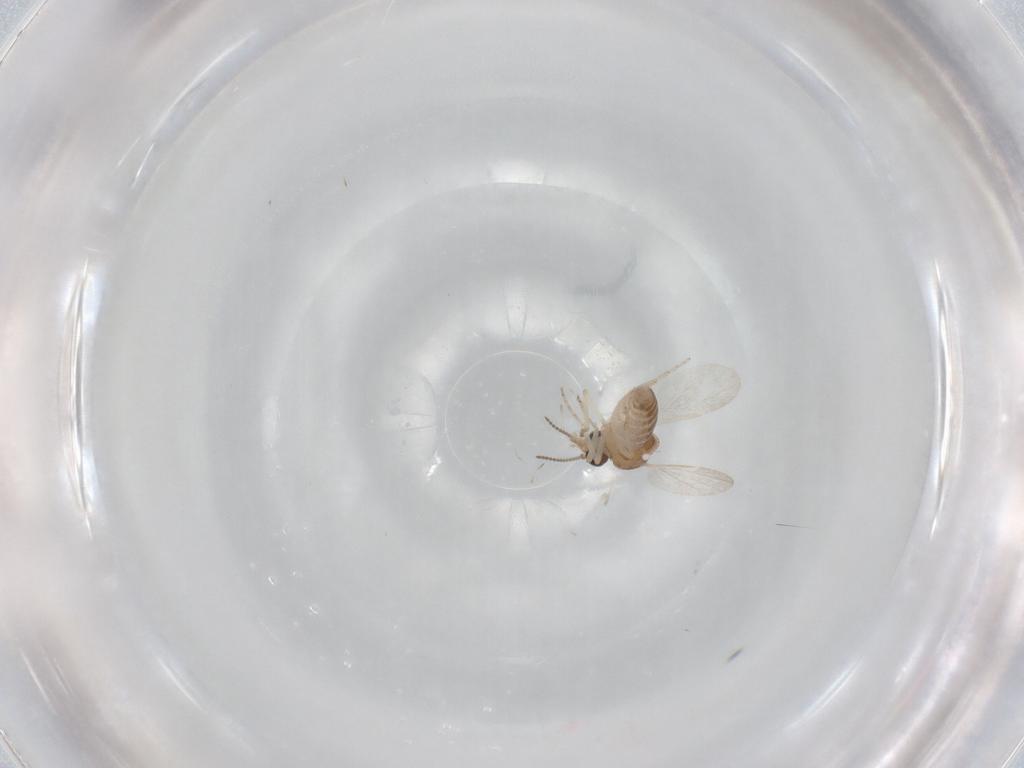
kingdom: Animalia
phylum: Arthropoda
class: Insecta
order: Diptera
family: Ceratopogonidae
